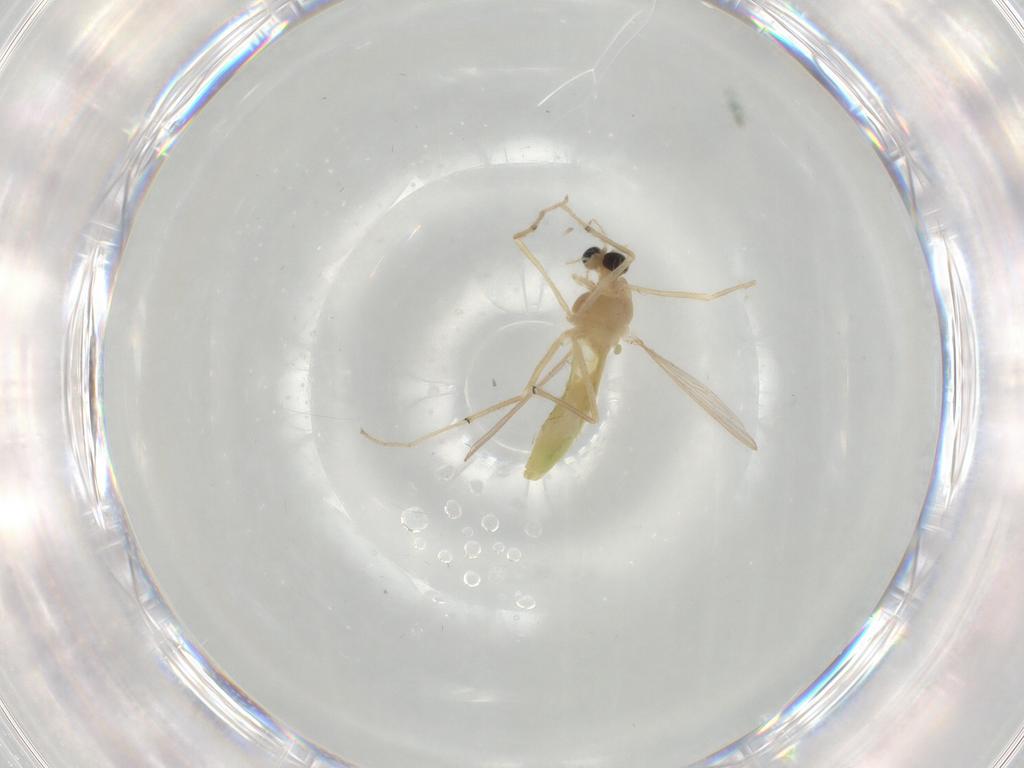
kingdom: Animalia
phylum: Arthropoda
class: Insecta
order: Diptera
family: Chironomidae
